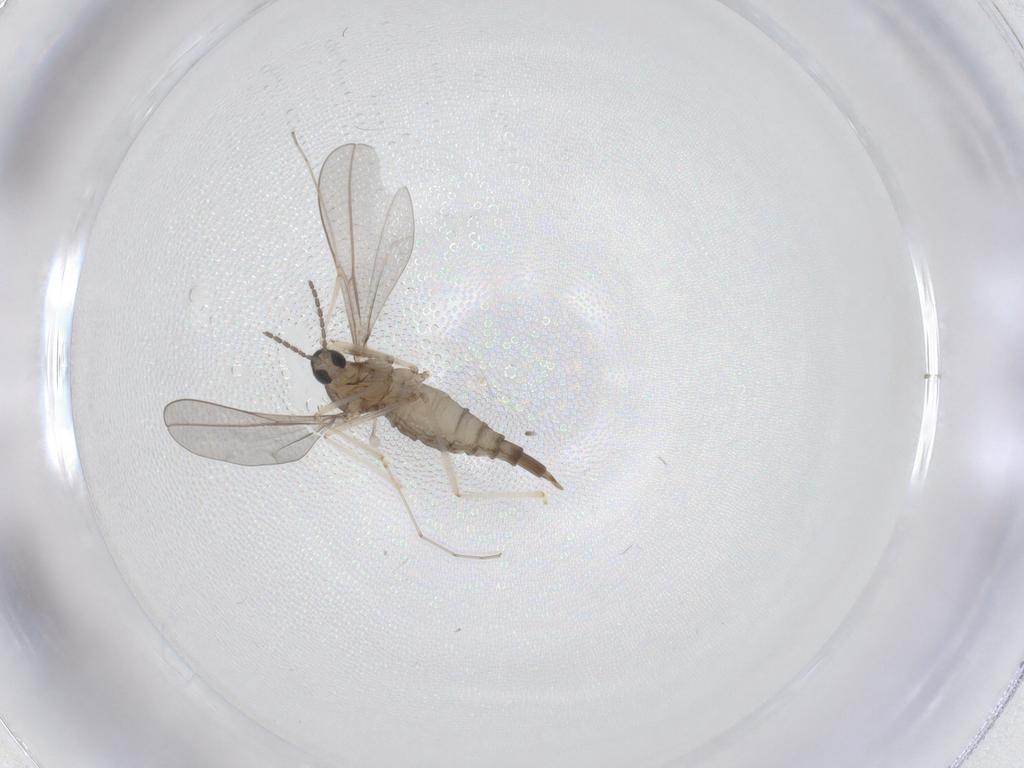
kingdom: Animalia
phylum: Arthropoda
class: Insecta
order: Diptera
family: Cecidomyiidae
